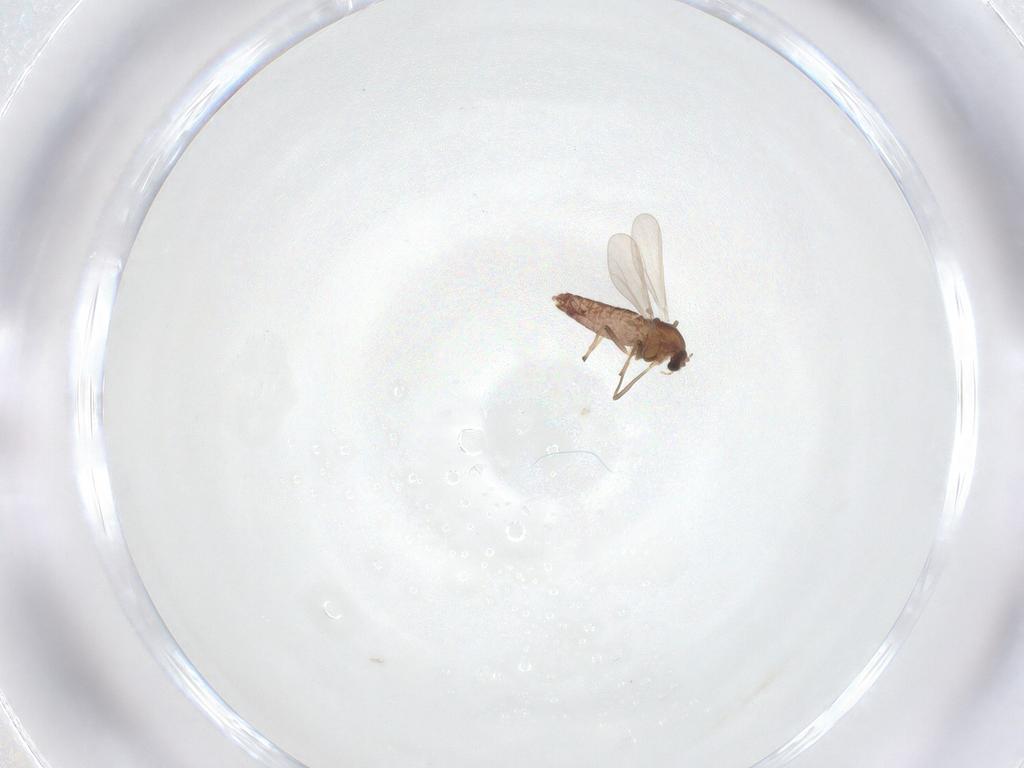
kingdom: Animalia
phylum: Arthropoda
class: Insecta
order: Diptera
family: Chironomidae
